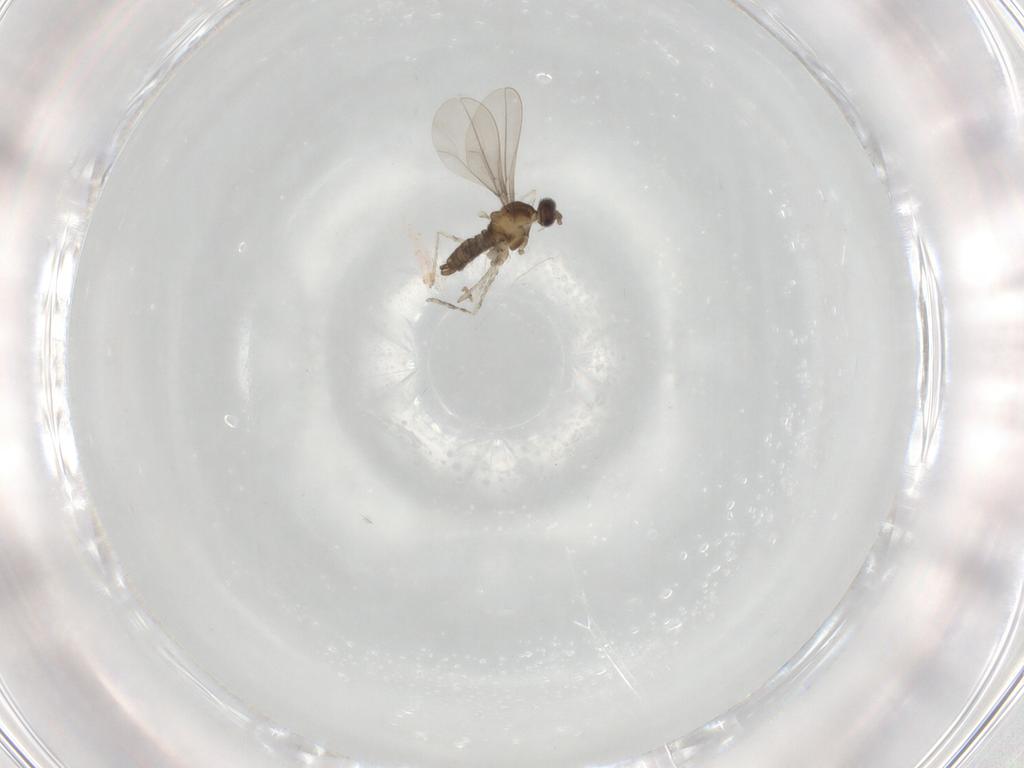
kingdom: Animalia
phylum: Arthropoda
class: Insecta
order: Diptera
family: Cecidomyiidae
